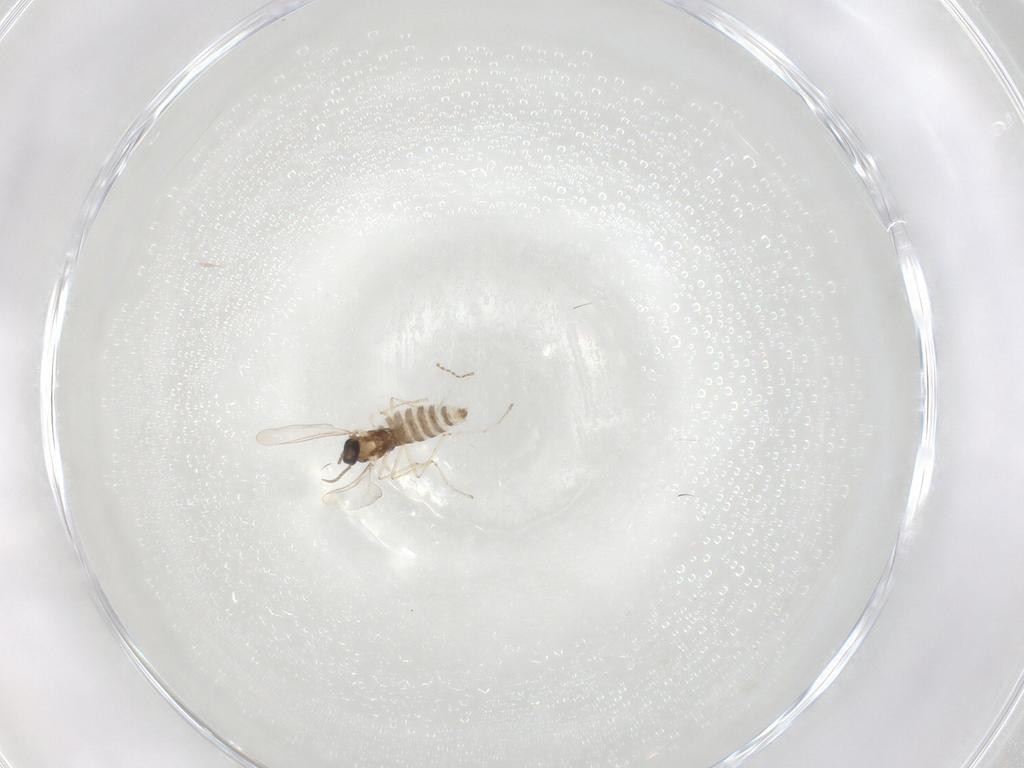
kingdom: Animalia
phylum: Arthropoda
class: Insecta
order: Diptera
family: Cecidomyiidae
